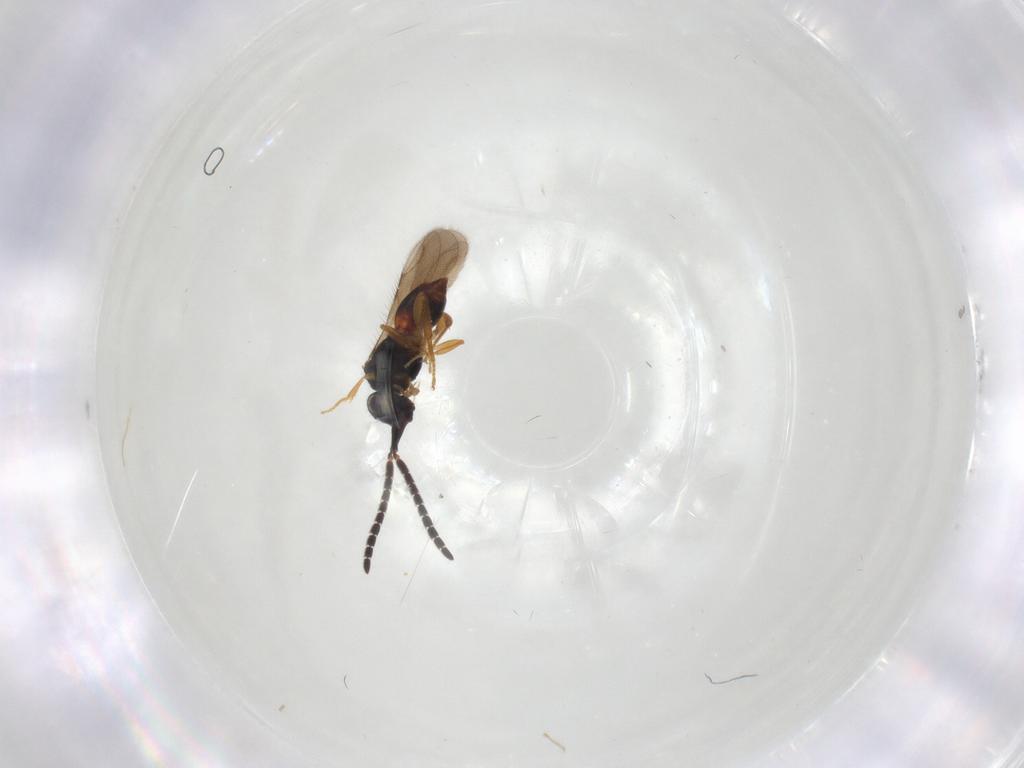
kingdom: Animalia
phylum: Arthropoda
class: Insecta
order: Hymenoptera
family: Ceraphronidae
